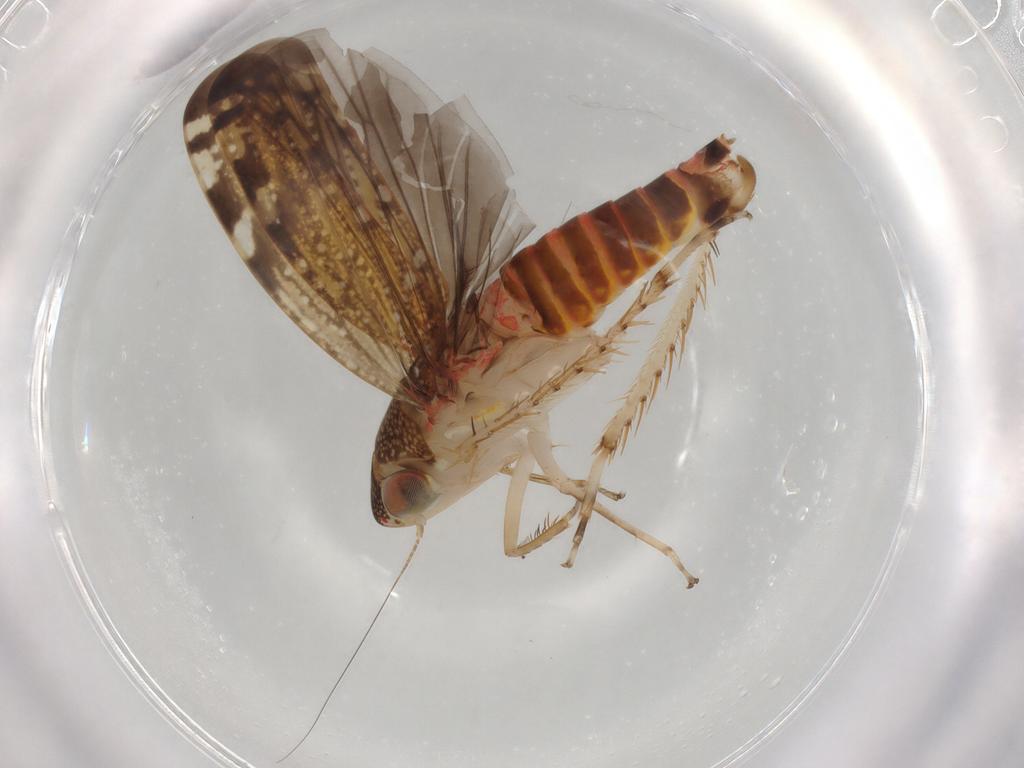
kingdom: Animalia
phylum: Arthropoda
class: Insecta
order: Hemiptera
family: Cicadellidae
